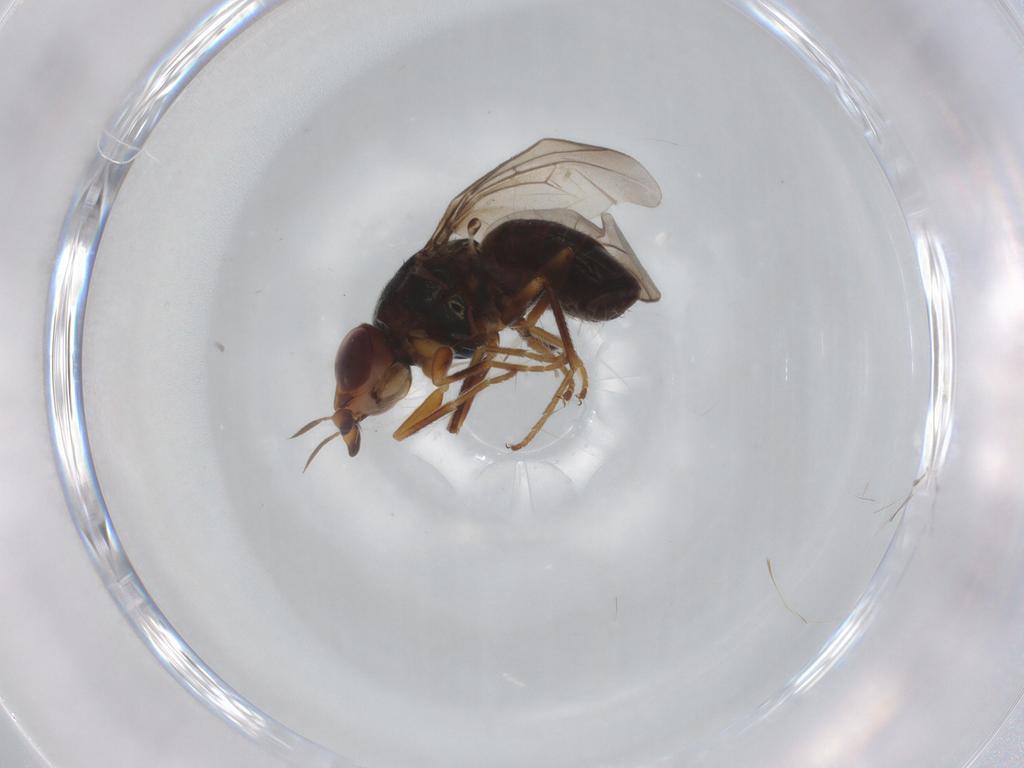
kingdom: Animalia
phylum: Arthropoda
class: Insecta
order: Diptera
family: Chloropidae
